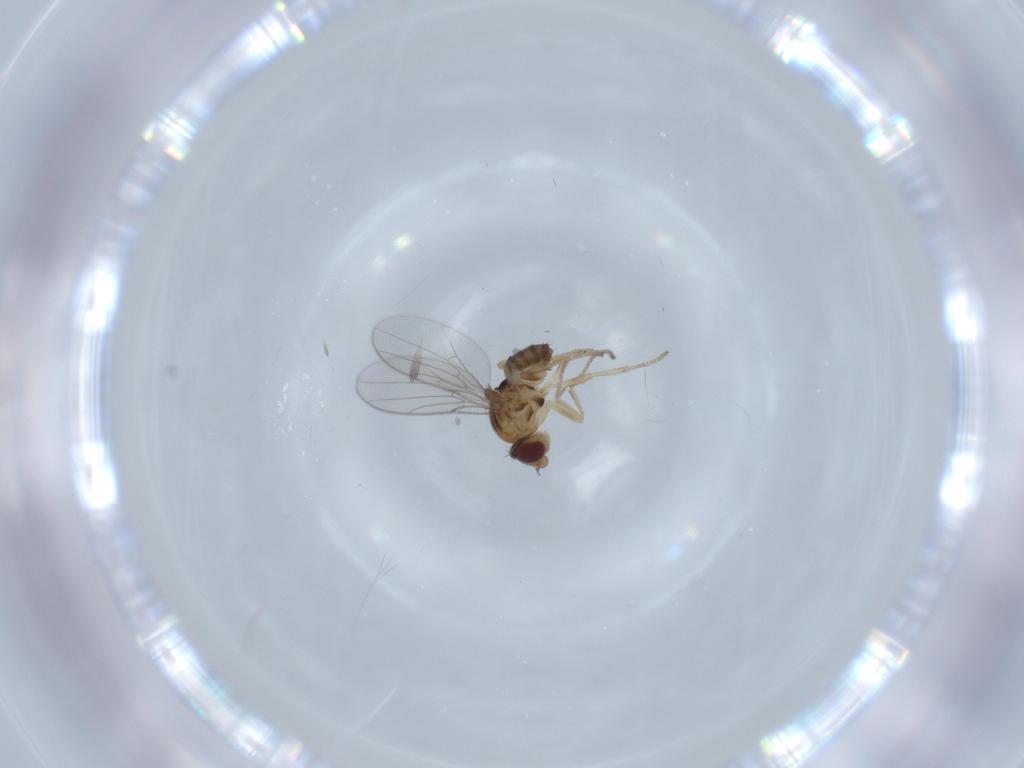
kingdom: Animalia
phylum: Arthropoda
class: Insecta
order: Diptera
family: Chloropidae
